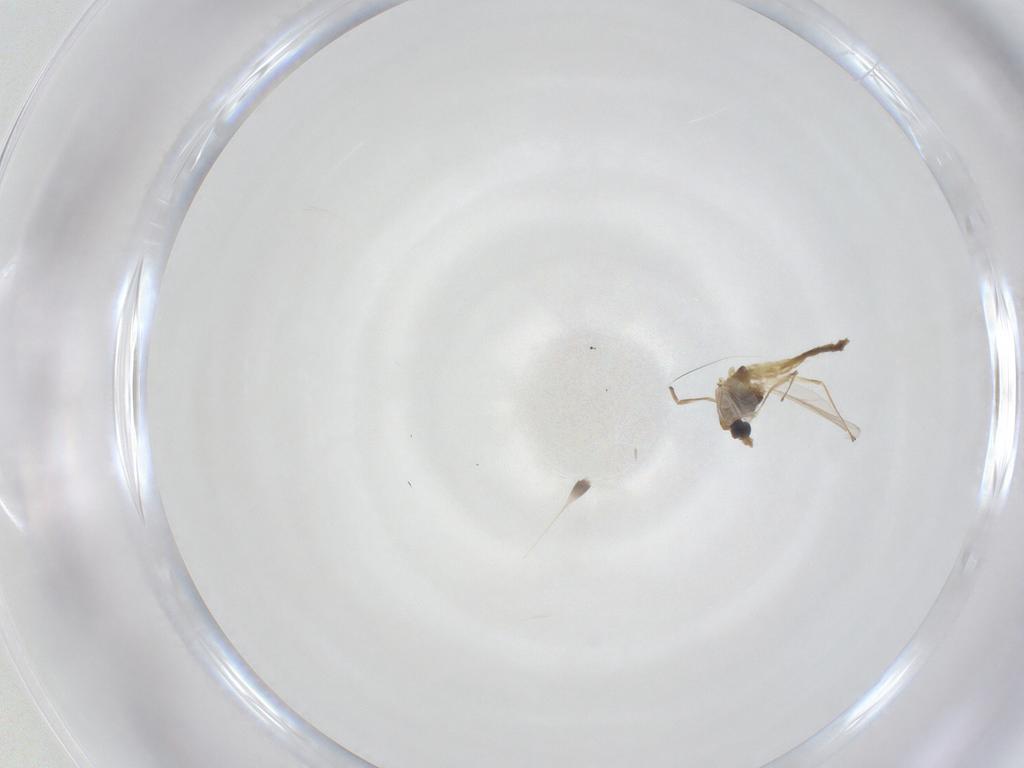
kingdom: Animalia
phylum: Arthropoda
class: Insecta
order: Diptera
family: Chironomidae
